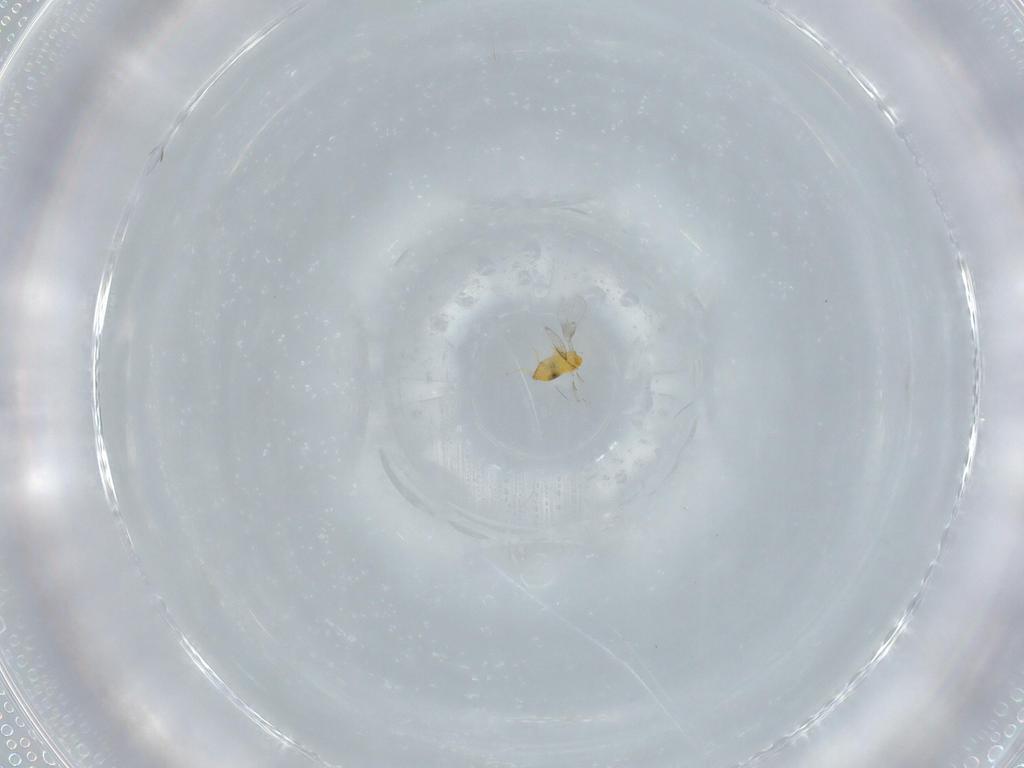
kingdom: Animalia
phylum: Arthropoda
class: Insecta
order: Hymenoptera
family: Trichogrammatidae
